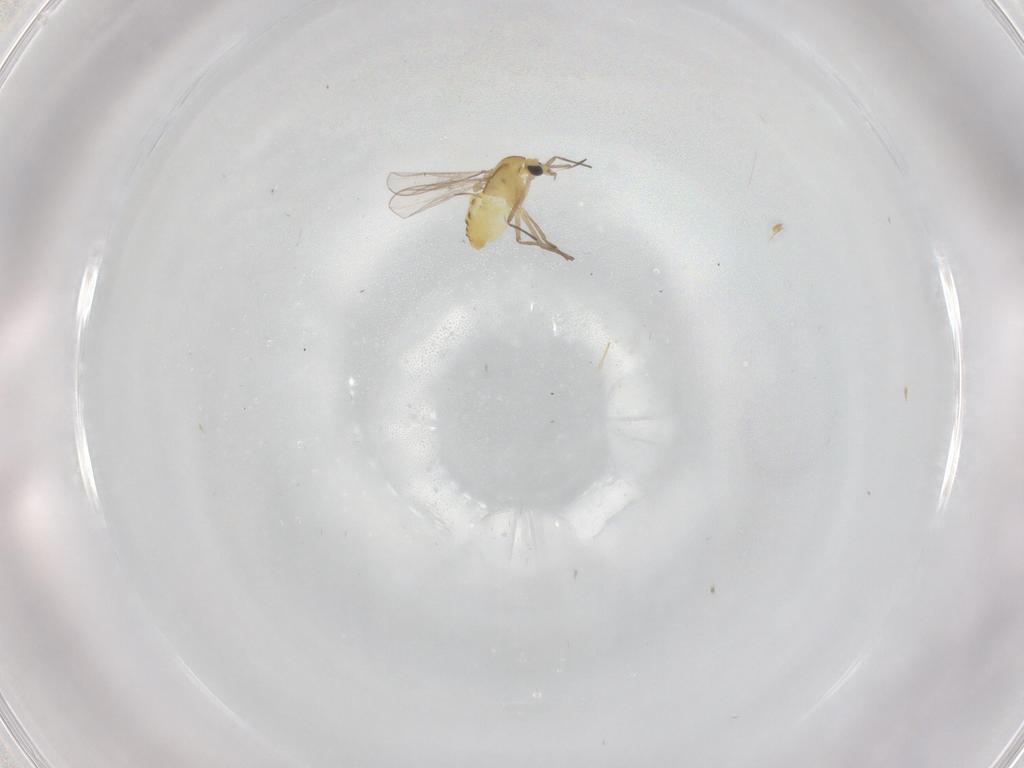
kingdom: Animalia
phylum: Arthropoda
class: Insecta
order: Diptera
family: Chironomidae
